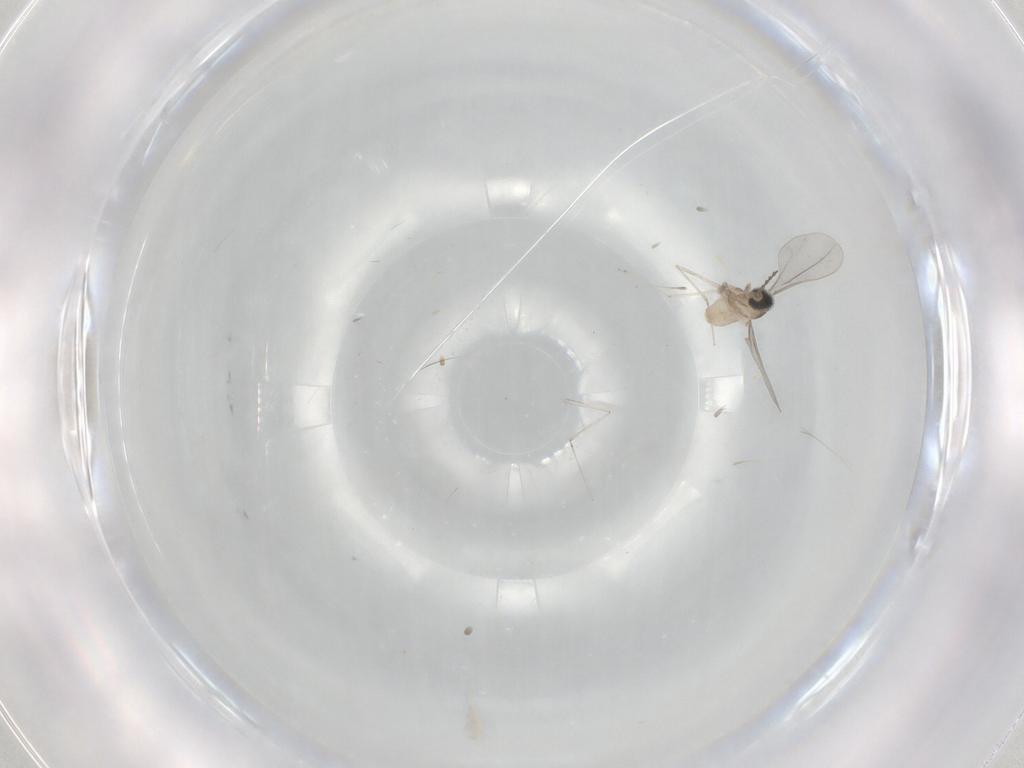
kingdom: Animalia
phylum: Arthropoda
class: Insecta
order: Diptera
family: Cecidomyiidae
